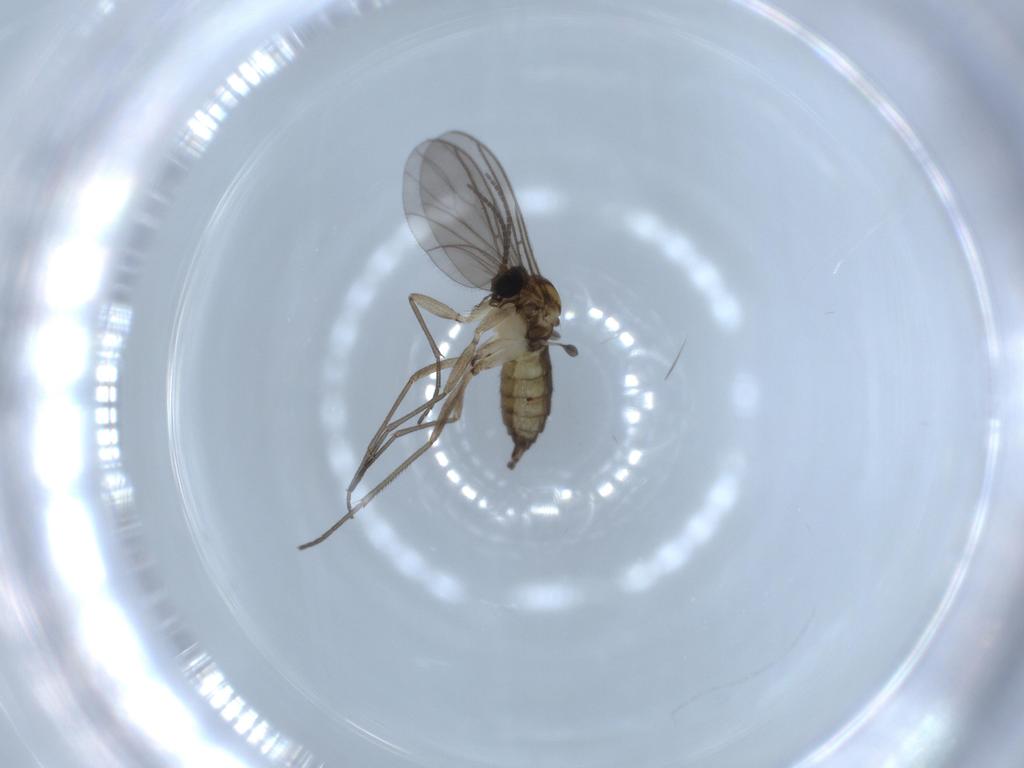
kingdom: Animalia
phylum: Arthropoda
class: Insecta
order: Diptera
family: Sciaridae
